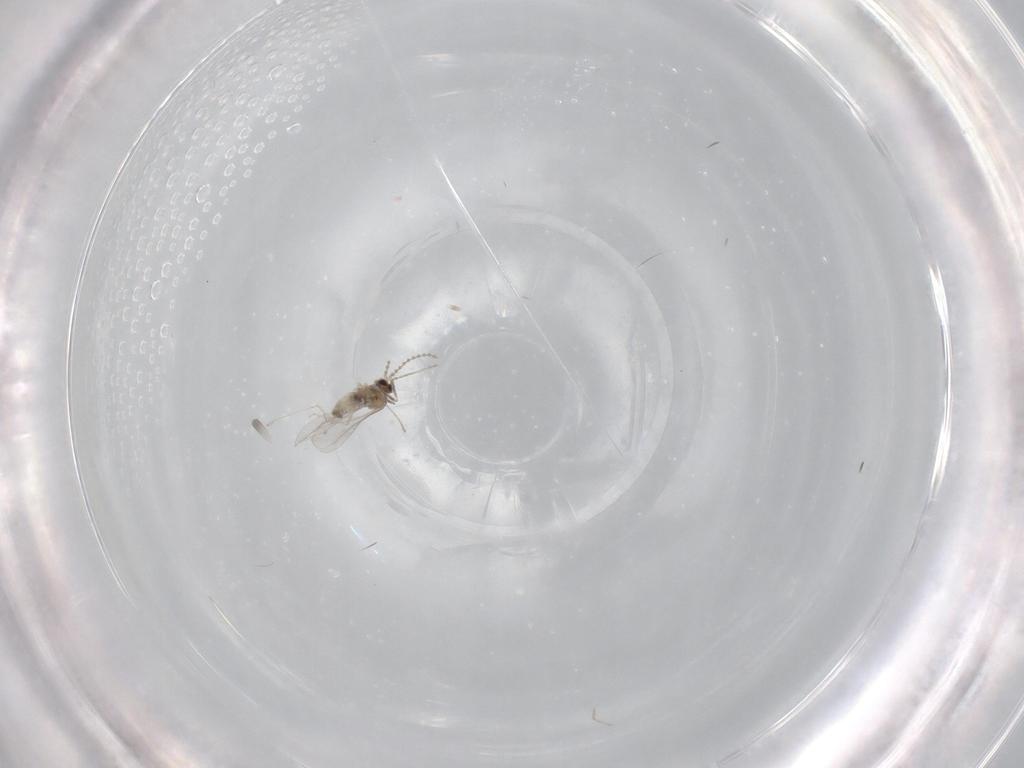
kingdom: Animalia
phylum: Arthropoda
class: Insecta
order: Diptera
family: Cecidomyiidae
